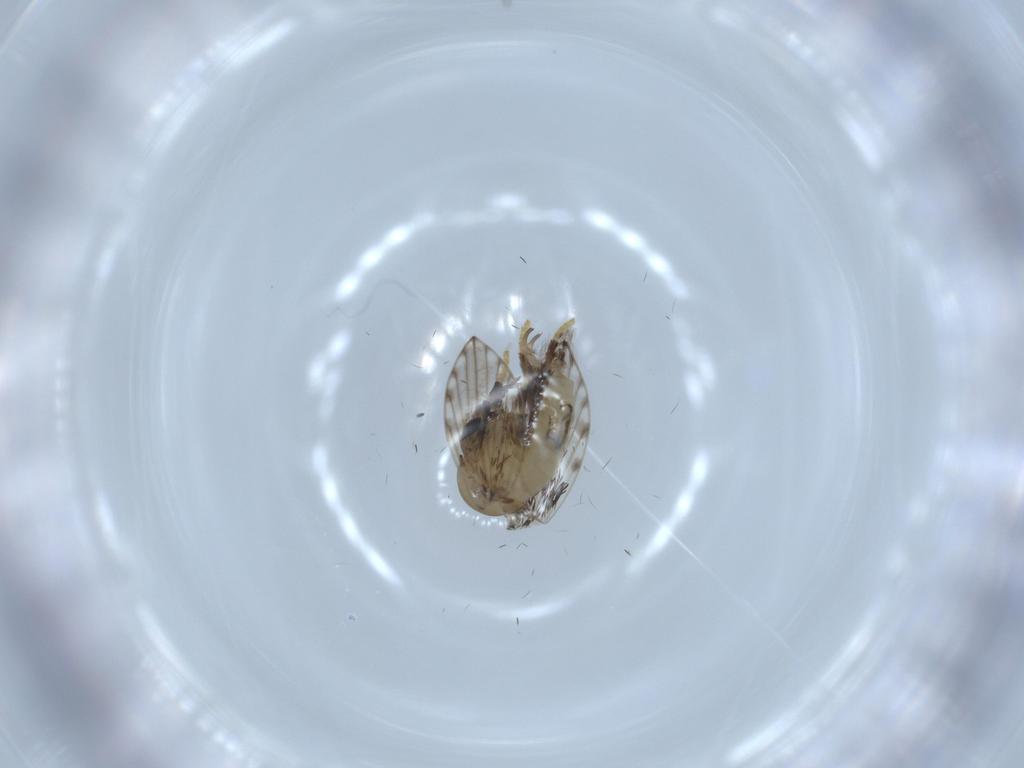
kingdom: Animalia
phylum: Arthropoda
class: Insecta
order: Diptera
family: Psychodidae
